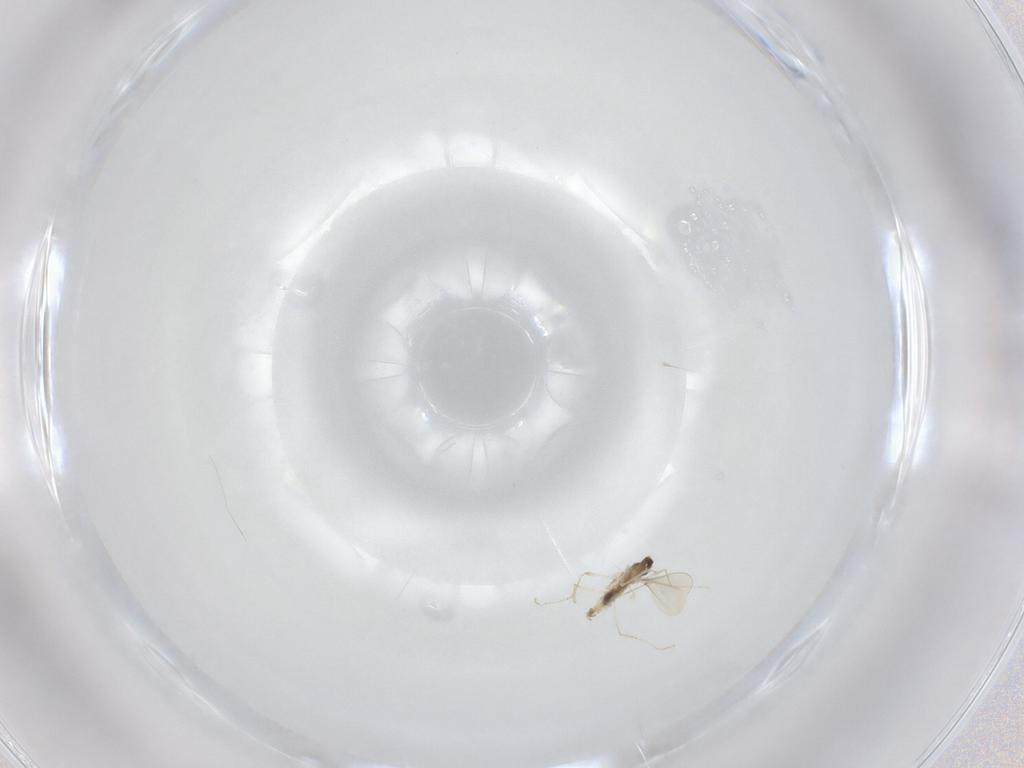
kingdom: Animalia
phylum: Arthropoda
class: Insecta
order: Diptera
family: Cecidomyiidae
